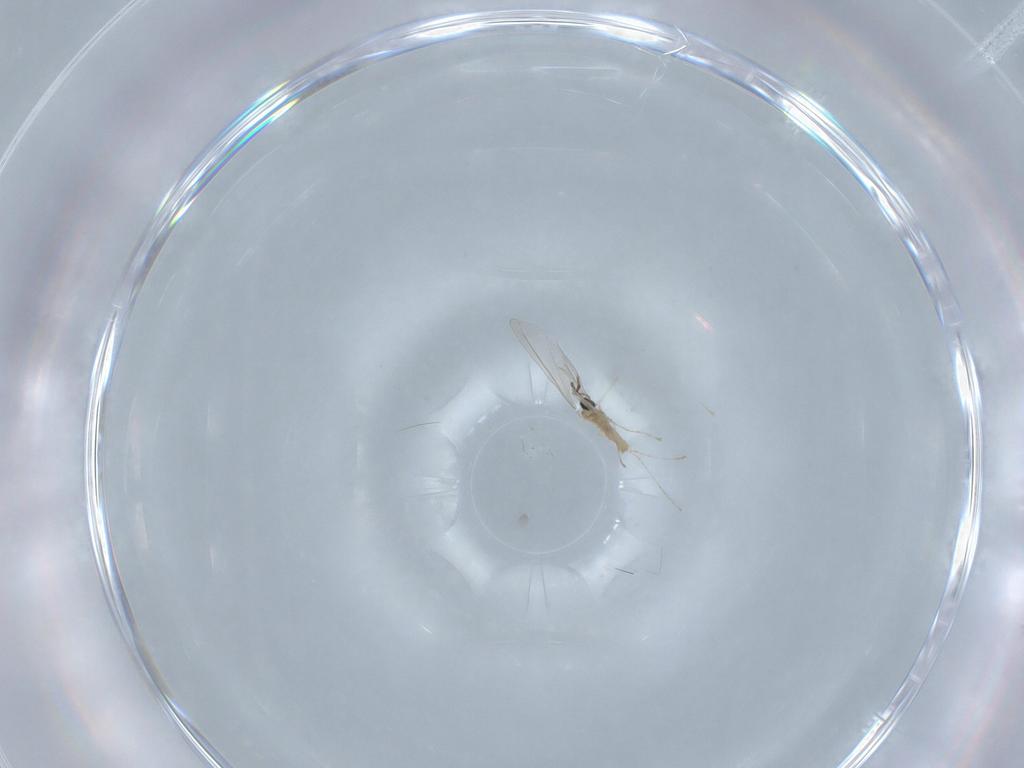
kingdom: Animalia
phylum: Arthropoda
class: Insecta
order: Diptera
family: Cecidomyiidae
